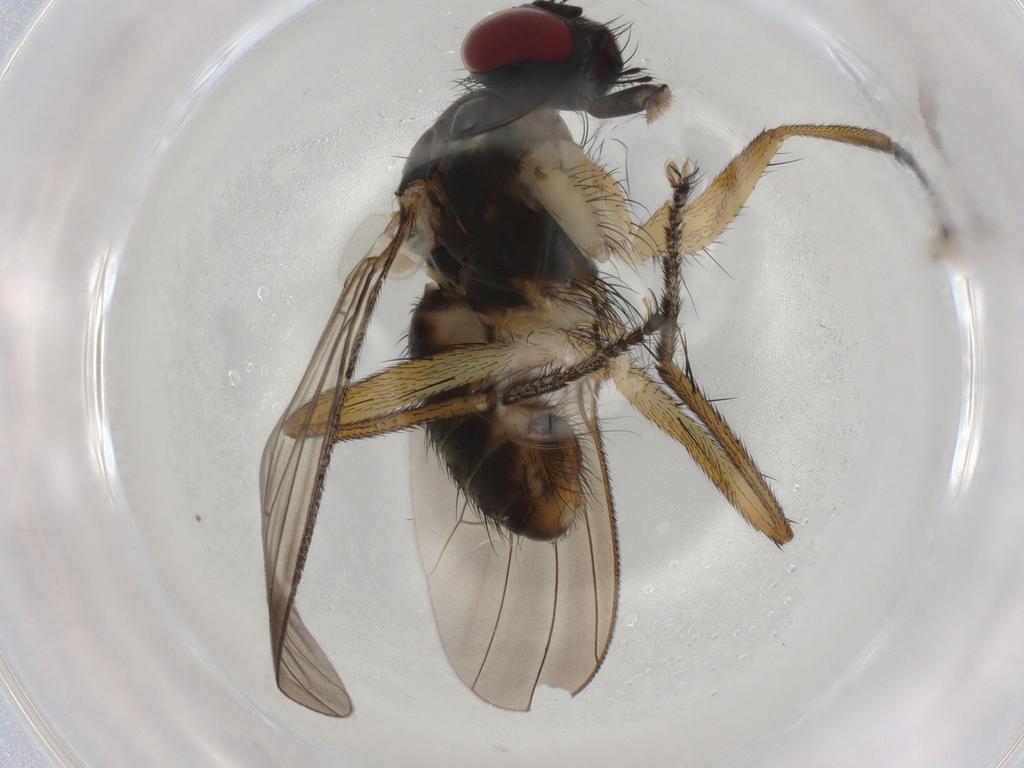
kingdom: Animalia
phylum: Arthropoda
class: Insecta
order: Diptera
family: Muscidae
